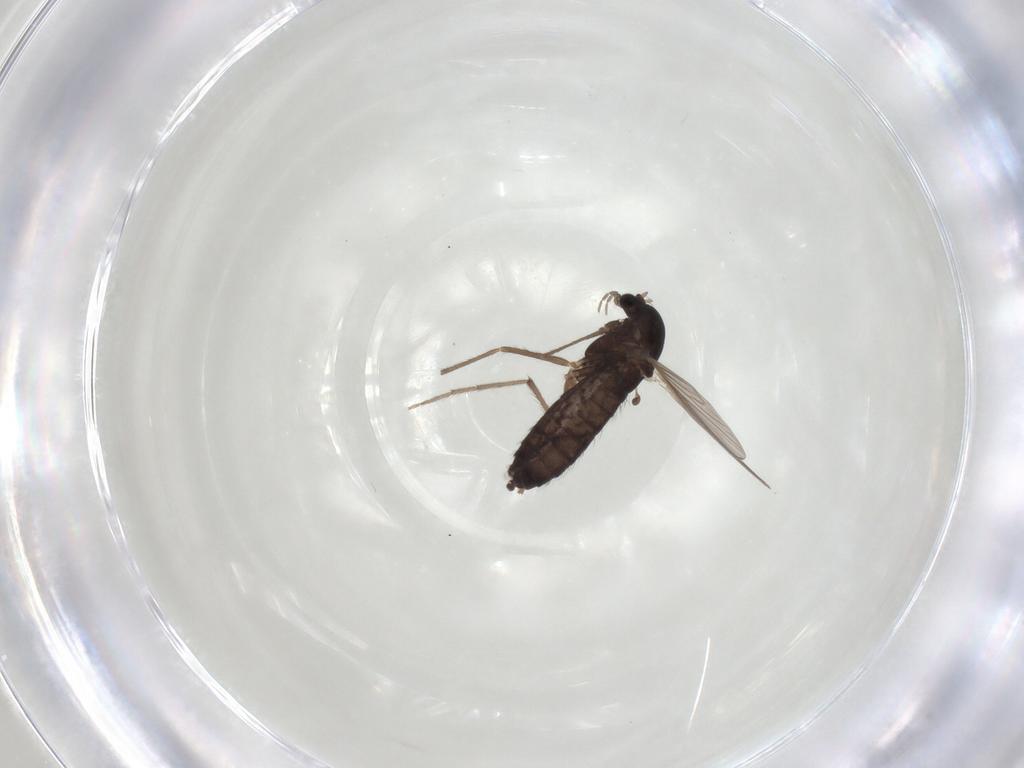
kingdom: Animalia
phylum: Arthropoda
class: Insecta
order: Diptera
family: Chironomidae
